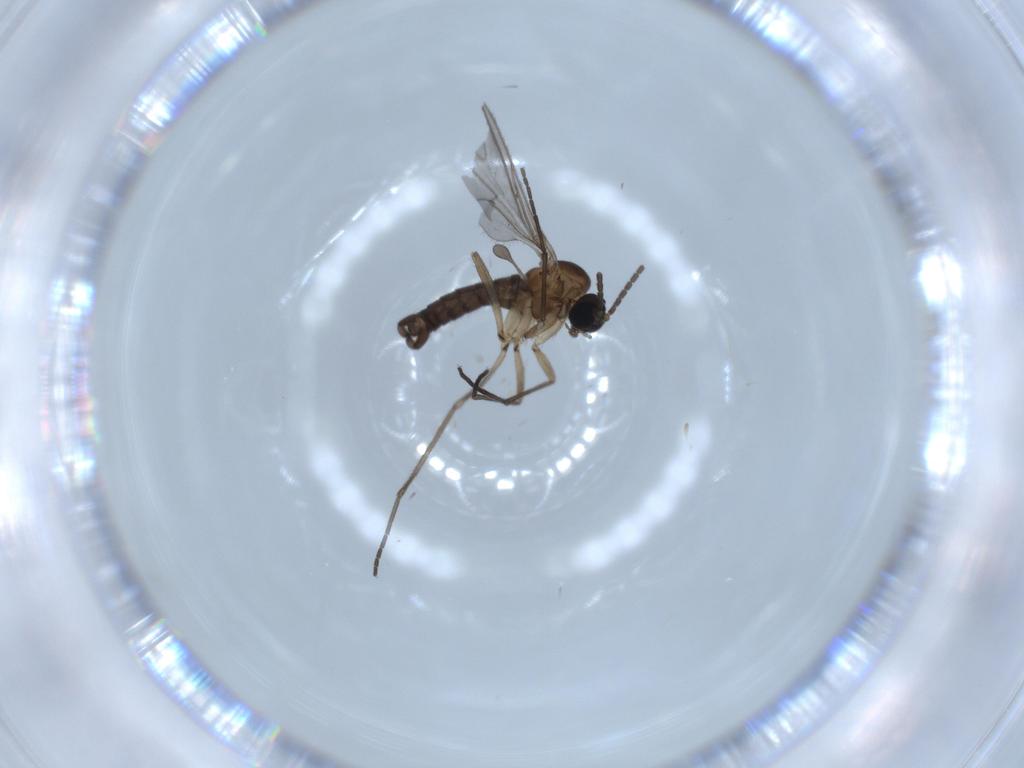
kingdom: Animalia
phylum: Arthropoda
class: Insecta
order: Diptera
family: Sciaridae
